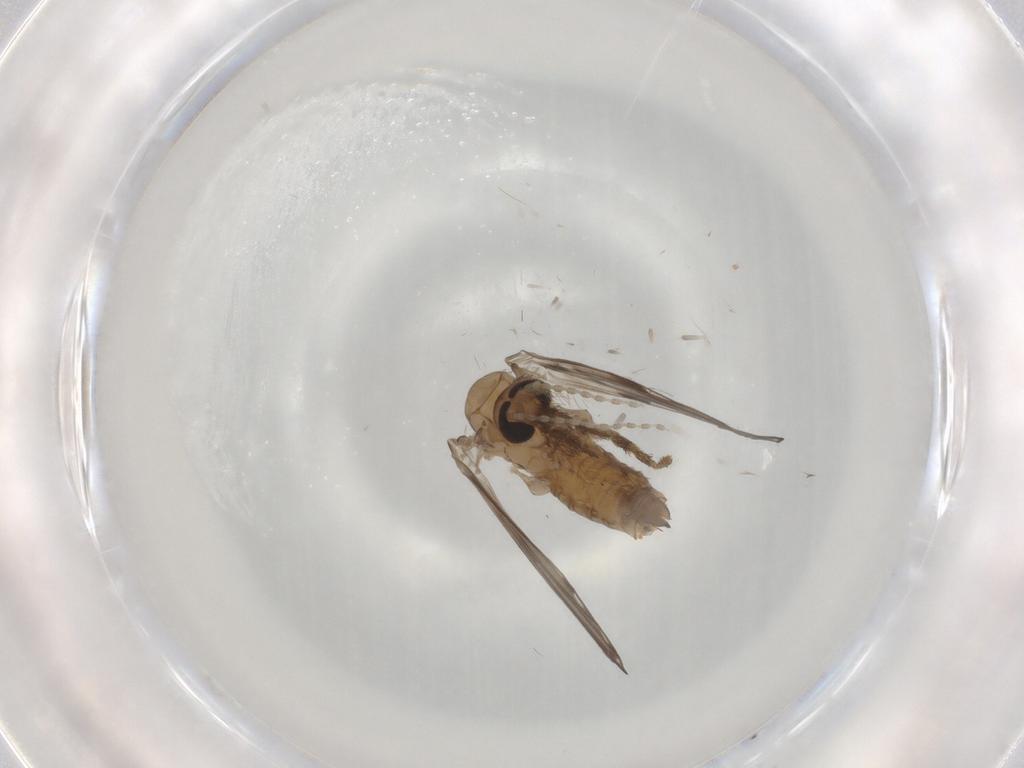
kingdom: Animalia
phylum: Arthropoda
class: Insecta
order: Diptera
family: Psychodidae
